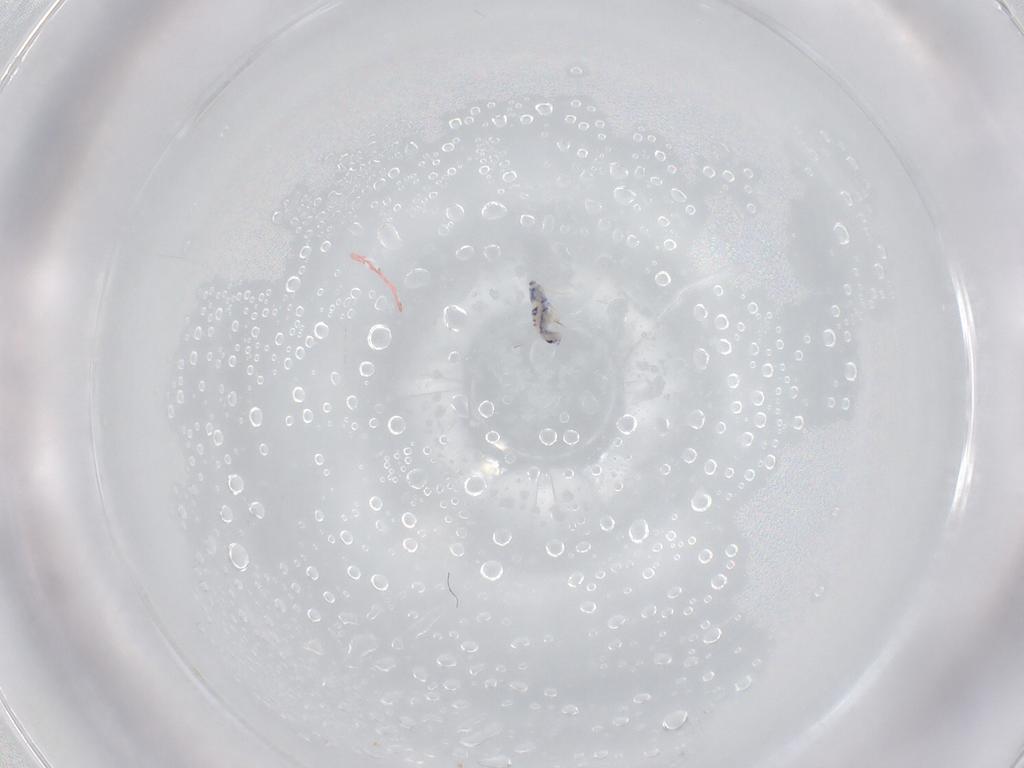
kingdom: Animalia
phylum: Arthropoda
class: Collembola
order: Entomobryomorpha
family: Entomobryidae
